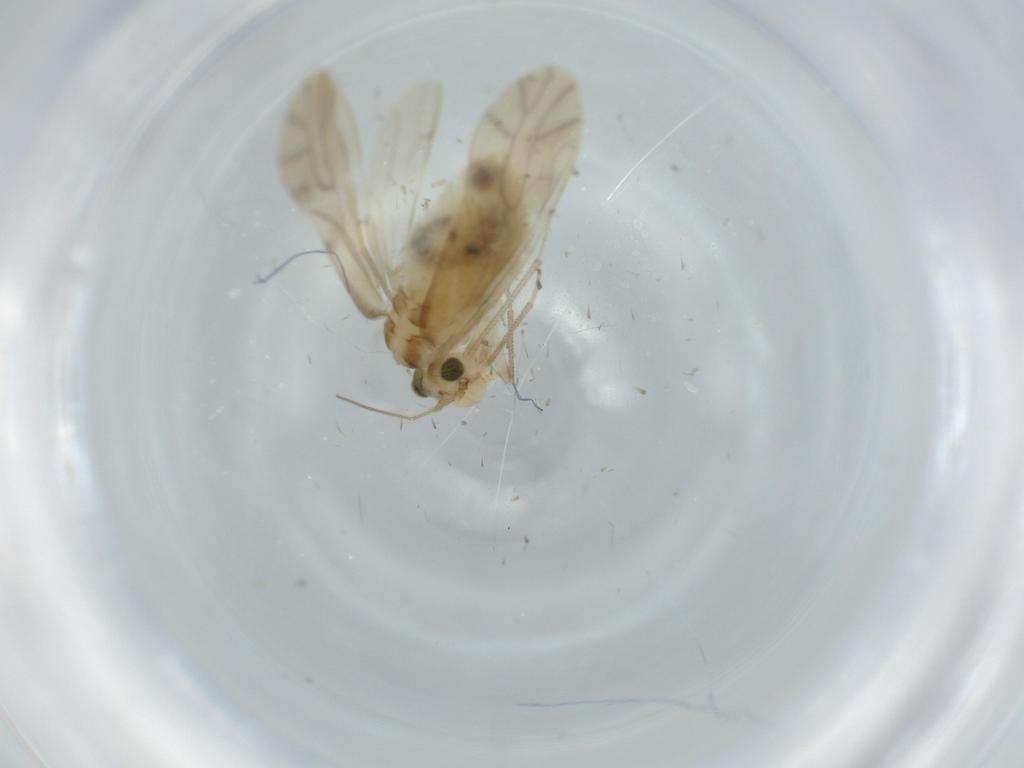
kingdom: Animalia
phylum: Arthropoda
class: Insecta
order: Psocodea
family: Caeciliusidae
